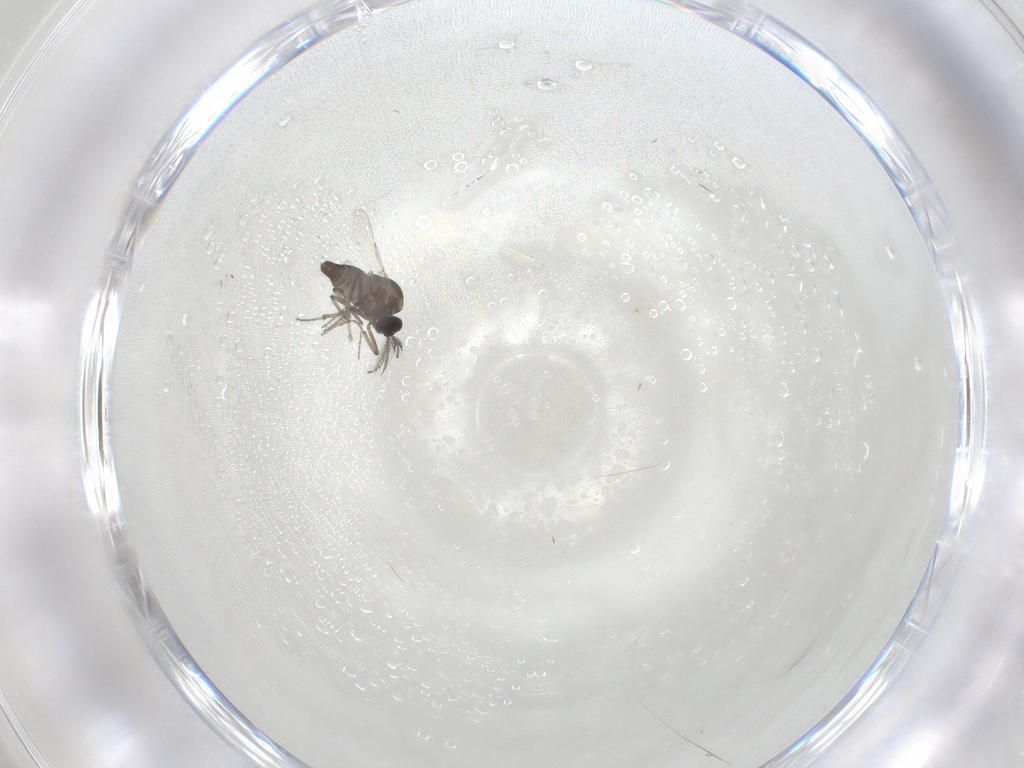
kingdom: Animalia
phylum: Arthropoda
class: Insecta
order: Diptera
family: Ceratopogonidae
